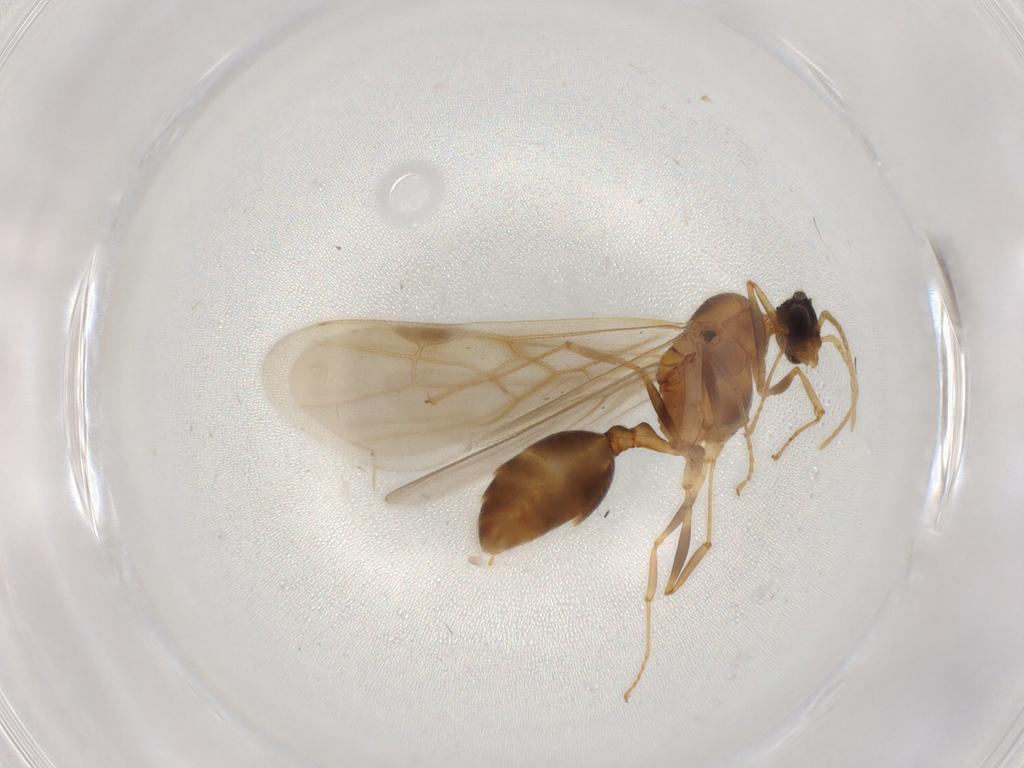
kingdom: Animalia
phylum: Arthropoda
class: Insecta
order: Hymenoptera
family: Formicidae
